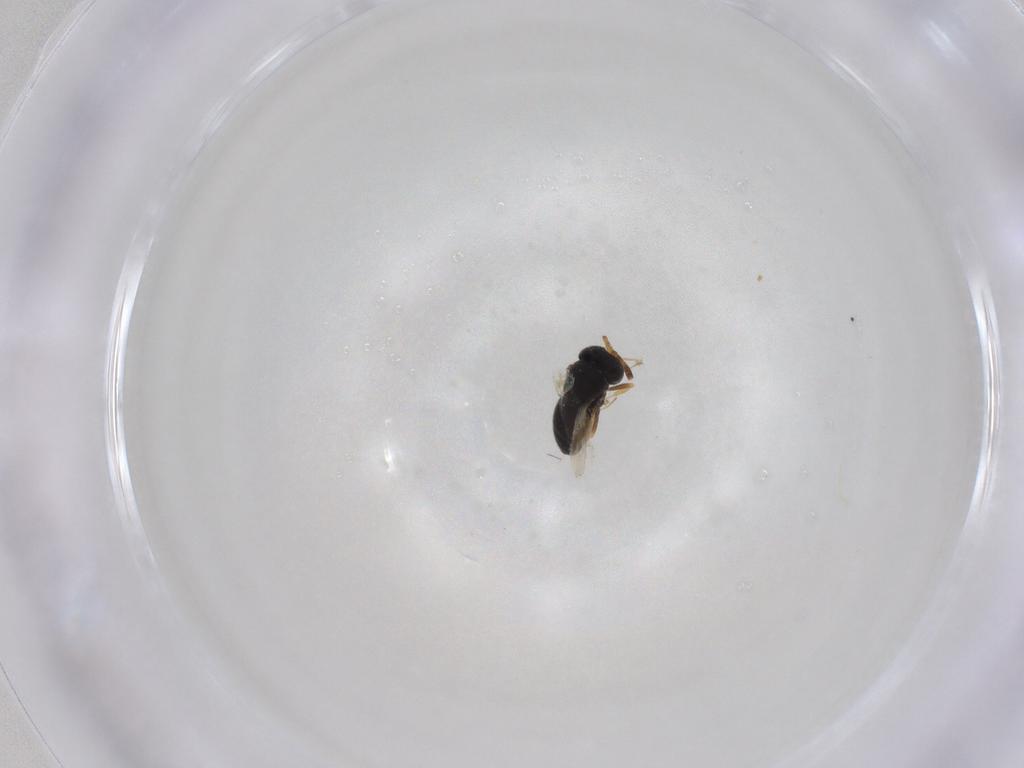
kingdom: Animalia
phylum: Arthropoda
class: Insecta
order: Hymenoptera
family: Scelionidae
